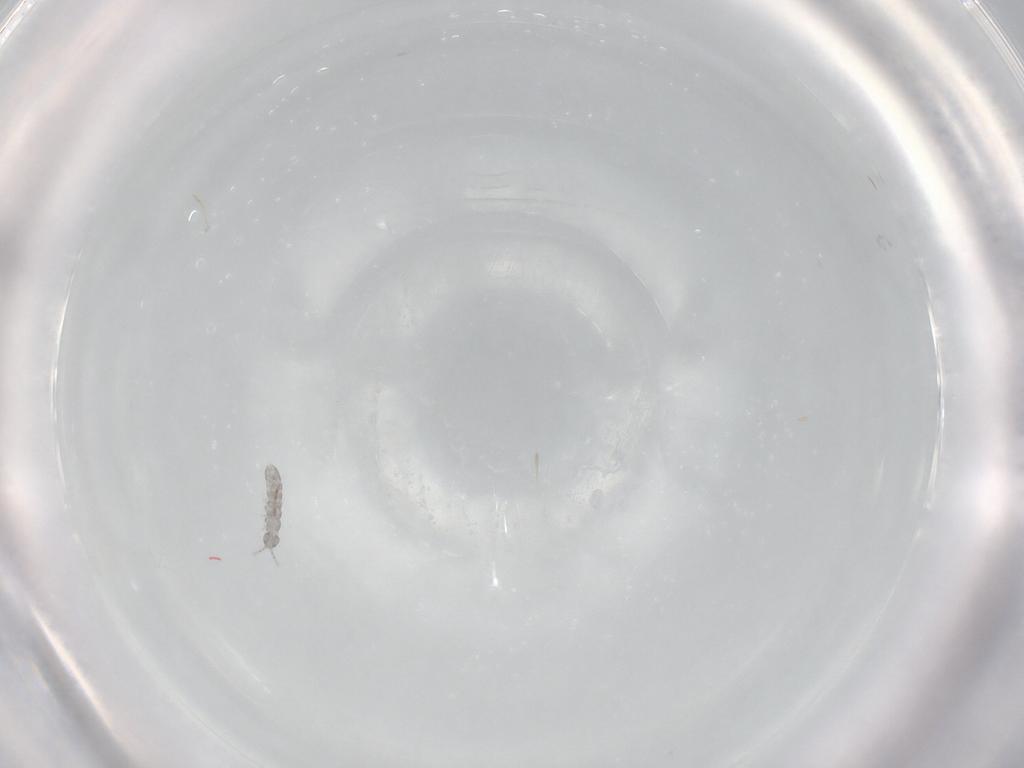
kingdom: Animalia
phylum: Arthropoda
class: Collembola
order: Entomobryomorpha
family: Isotomidae
